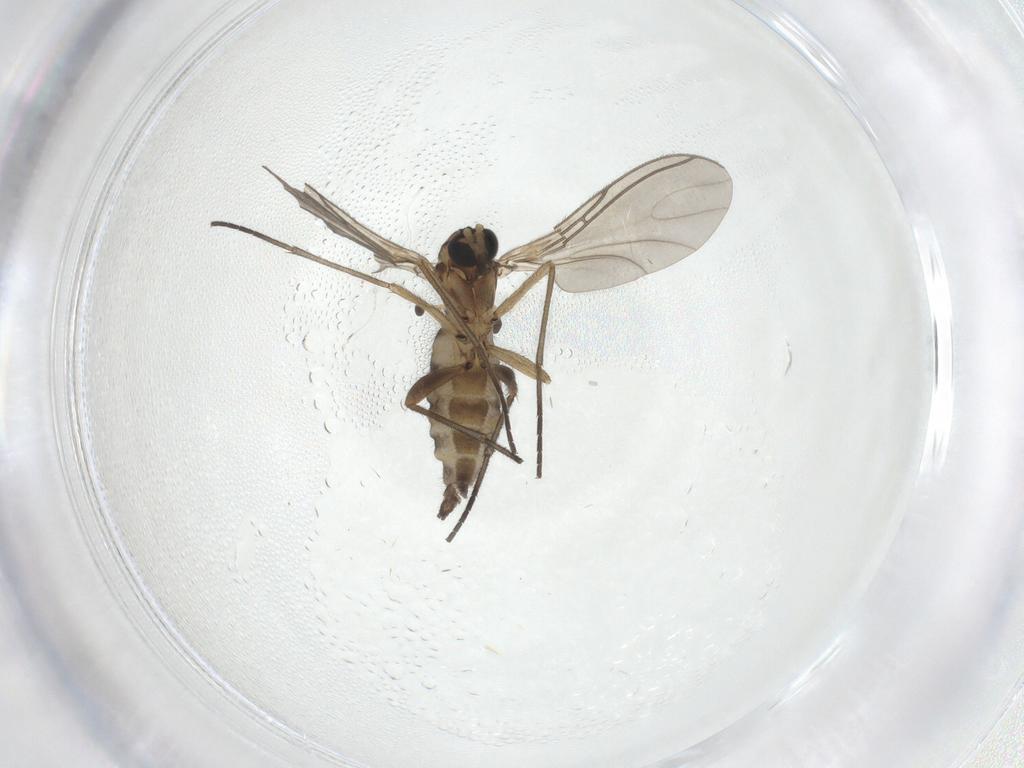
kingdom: Animalia
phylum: Arthropoda
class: Insecta
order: Diptera
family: Sciaridae
